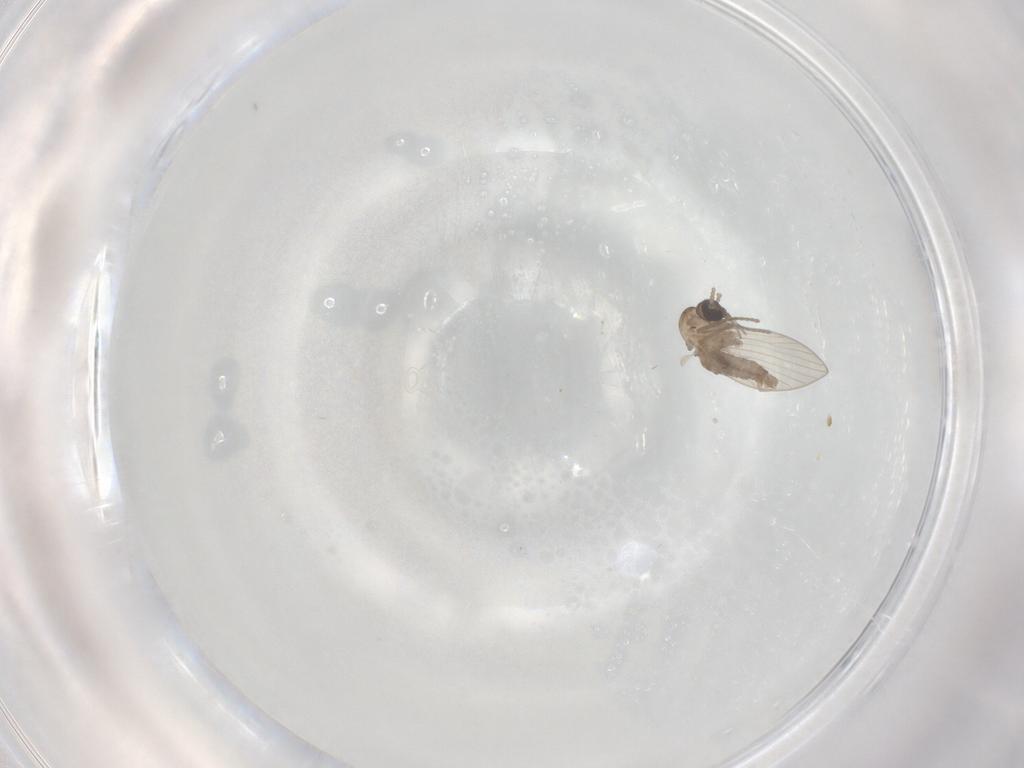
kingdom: Animalia
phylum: Arthropoda
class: Insecta
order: Diptera
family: Psychodidae
